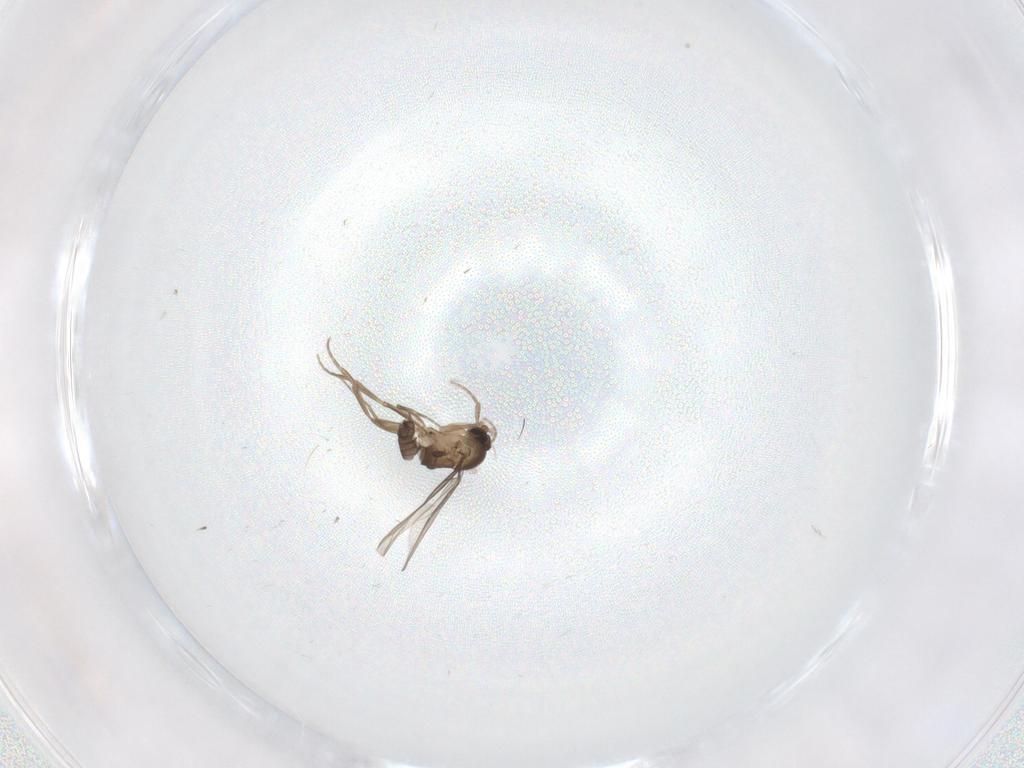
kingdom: Animalia
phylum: Arthropoda
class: Insecta
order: Diptera
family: Phoridae
